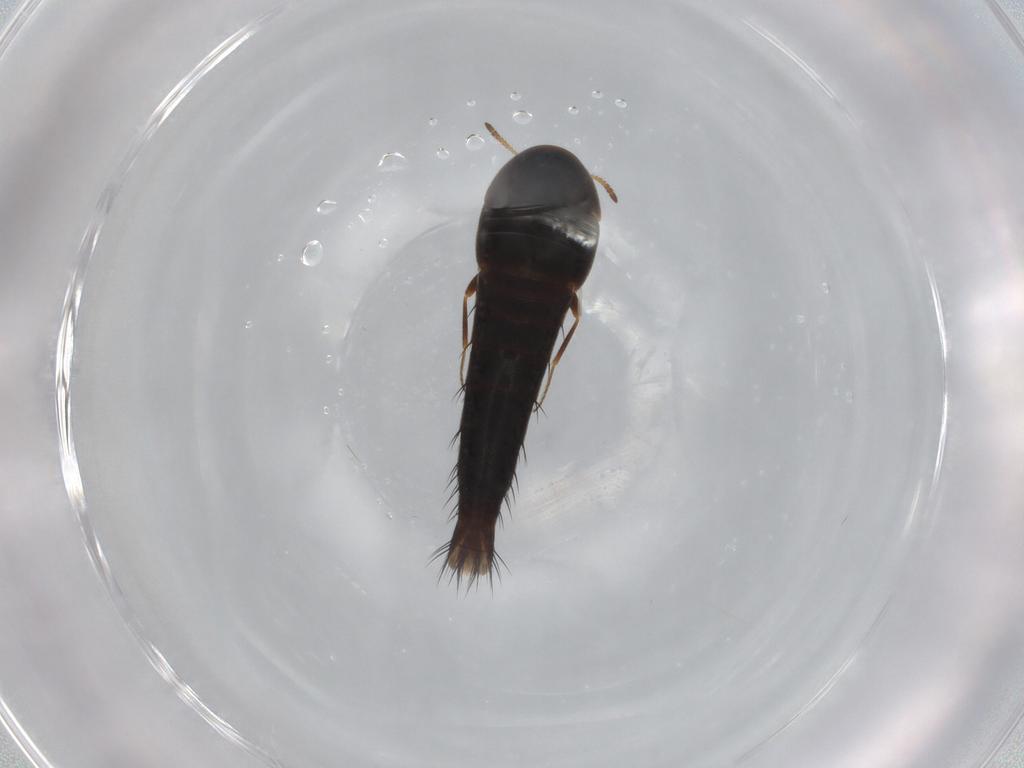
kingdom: Animalia
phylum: Arthropoda
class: Insecta
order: Coleoptera
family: Staphylinidae
